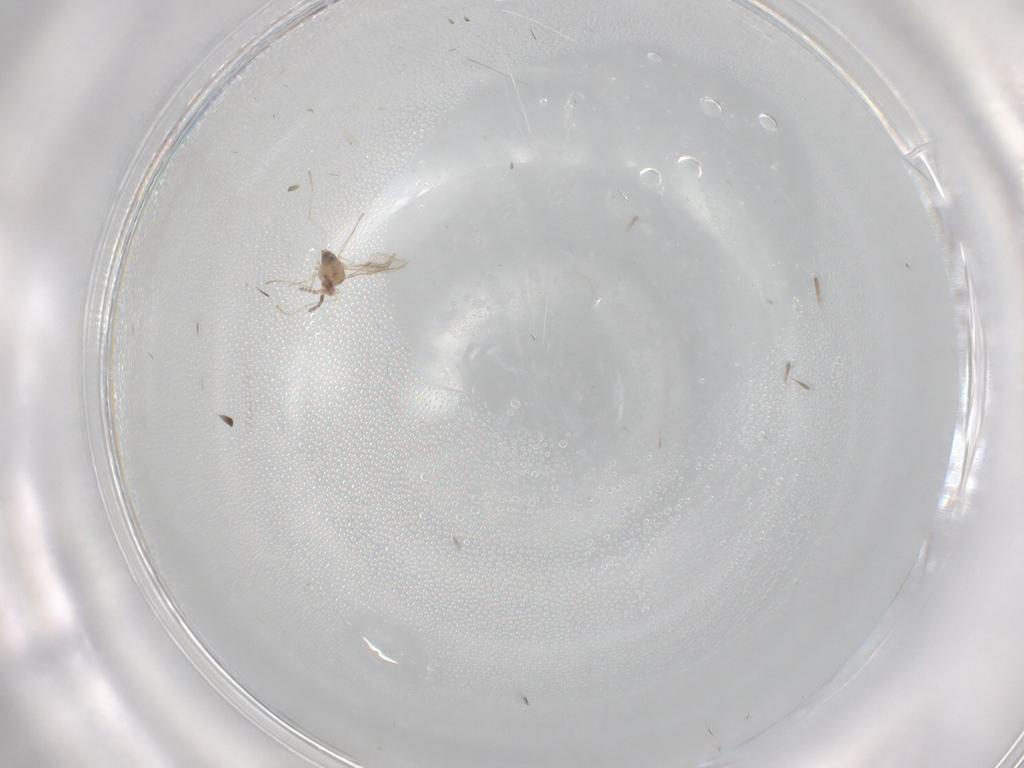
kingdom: Animalia
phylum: Arthropoda
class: Insecta
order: Diptera
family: Cecidomyiidae
